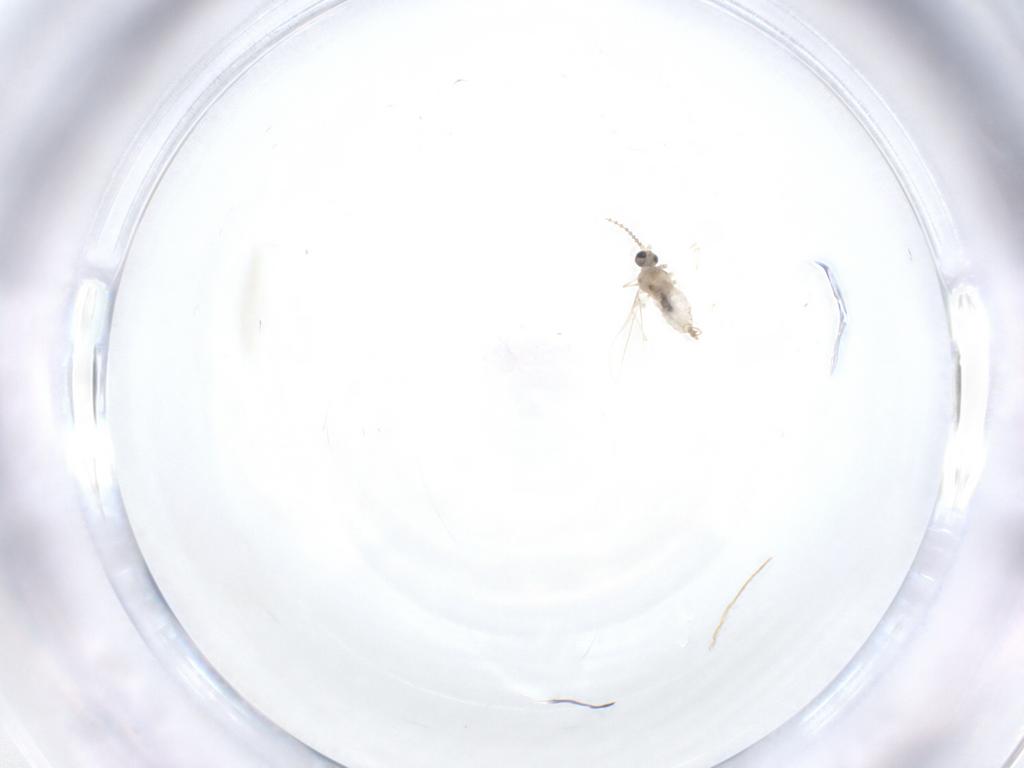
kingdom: Animalia
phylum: Arthropoda
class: Insecta
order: Diptera
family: Cecidomyiidae
